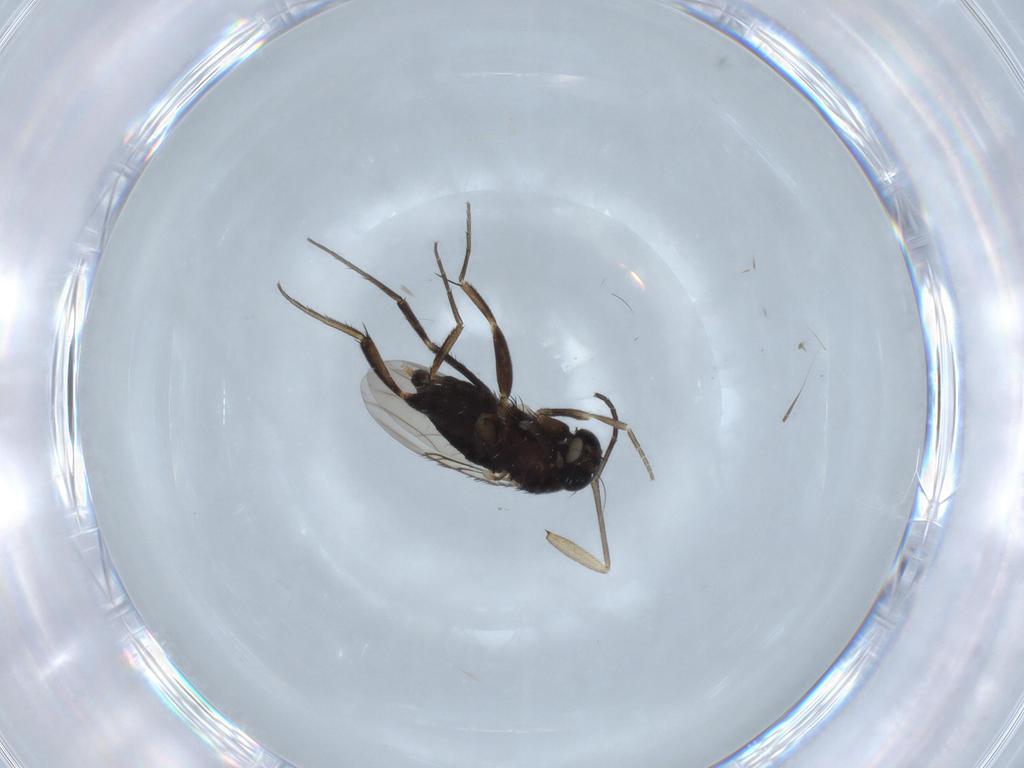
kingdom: Animalia
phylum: Arthropoda
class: Insecta
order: Diptera
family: Phoridae
